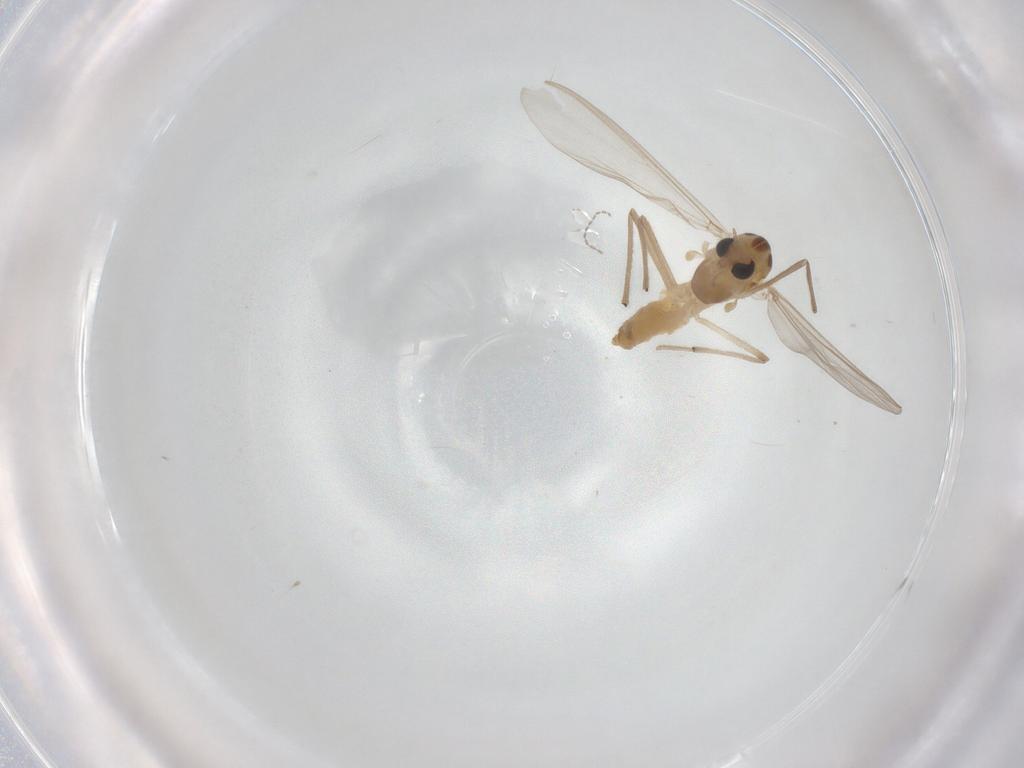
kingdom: Animalia
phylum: Arthropoda
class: Insecta
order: Diptera
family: Chironomidae
